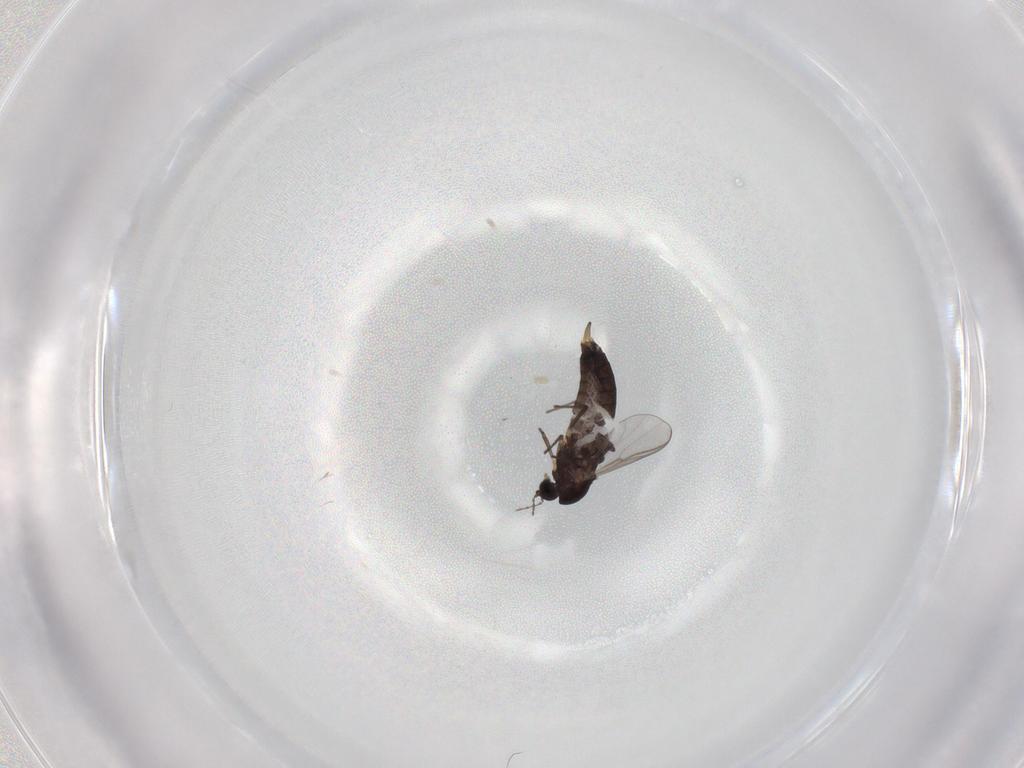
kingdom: Animalia
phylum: Arthropoda
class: Insecta
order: Diptera
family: Chironomidae
